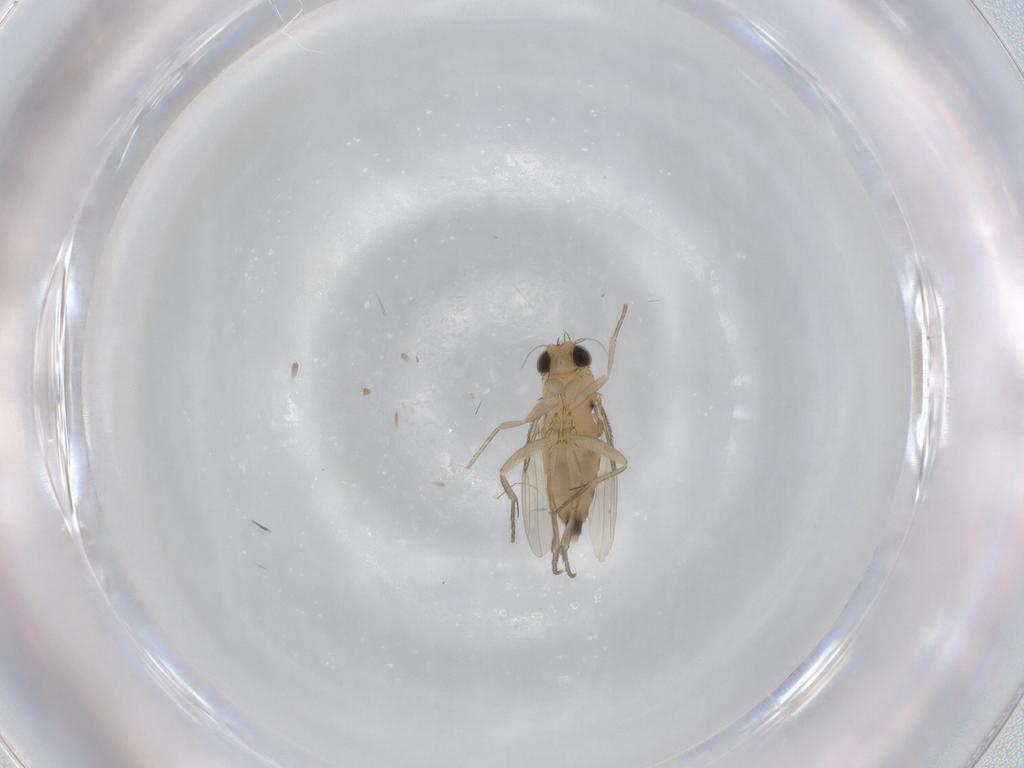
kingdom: Animalia
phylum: Arthropoda
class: Insecta
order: Diptera
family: Phoridae
